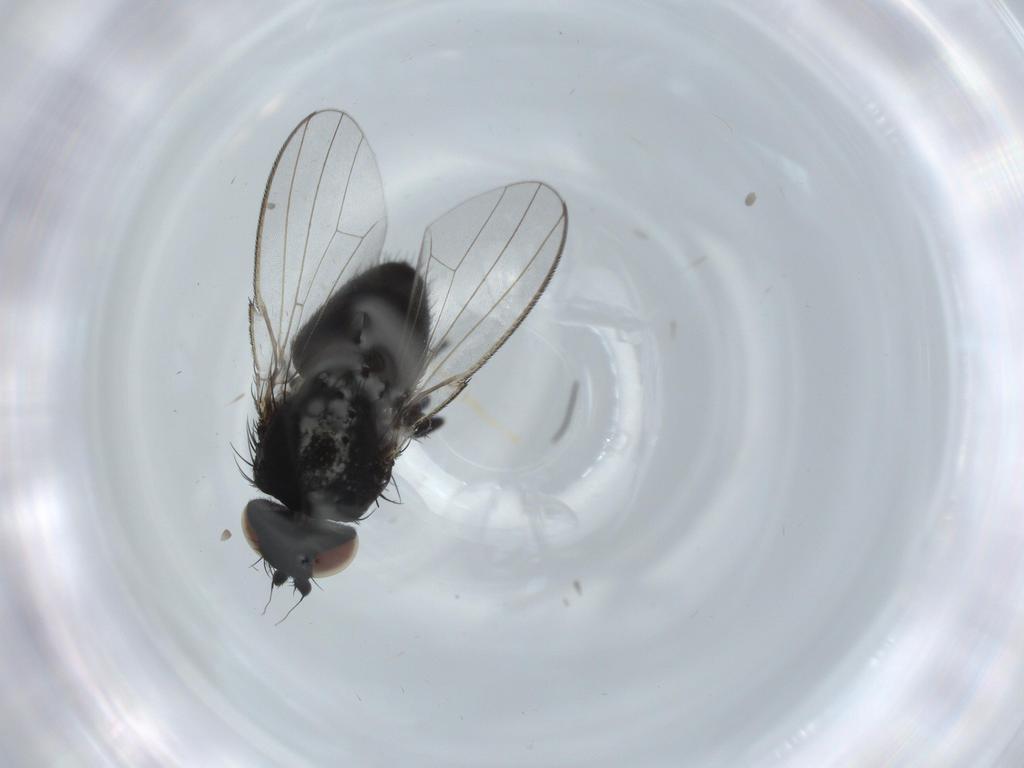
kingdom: Animalia
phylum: Arthropoda
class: Insecta
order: Diptera
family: Milichiidae
